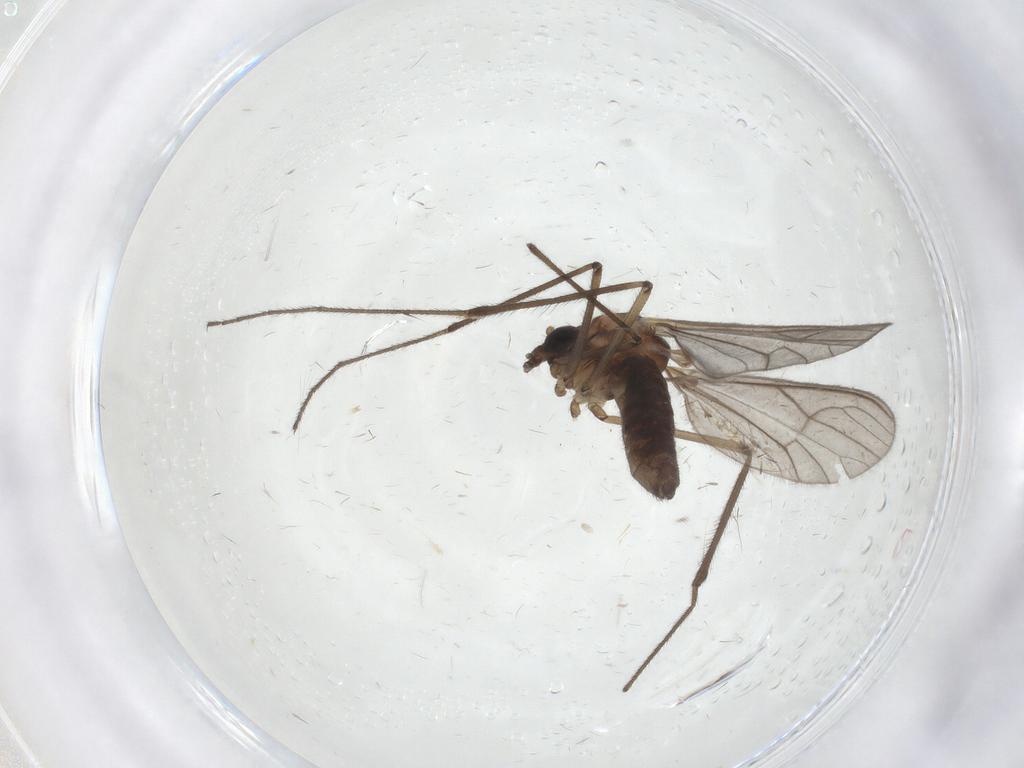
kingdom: Animalia
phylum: Arthropoda
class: Insecta
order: Diptera
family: Dixidae
